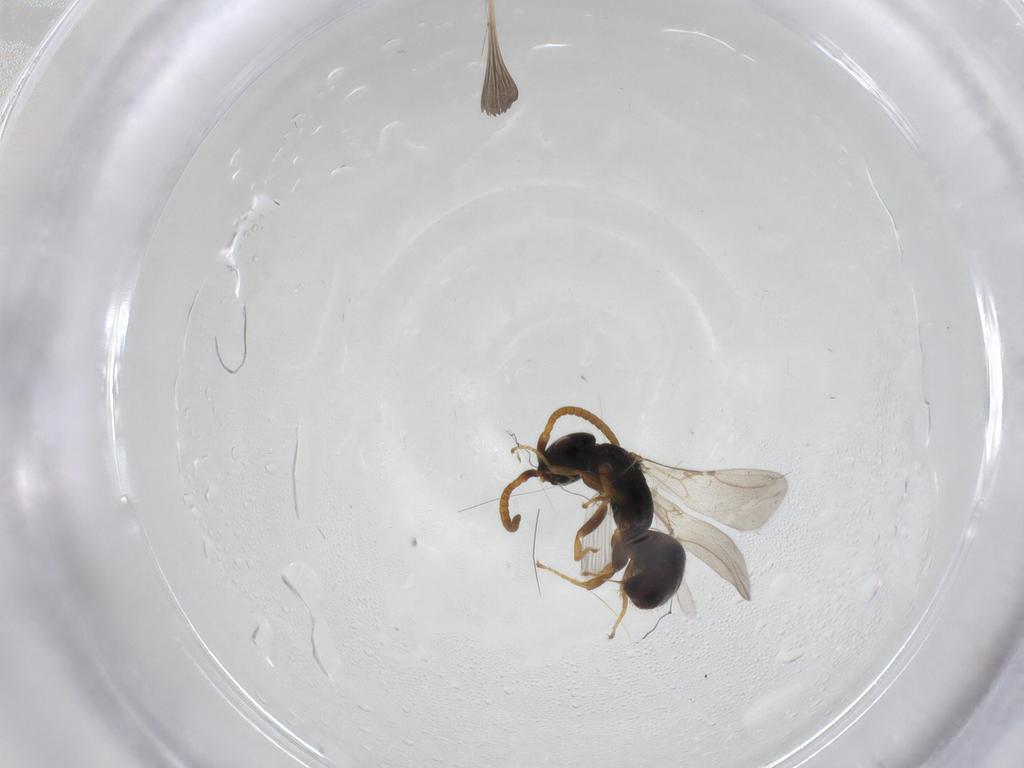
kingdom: Animalia
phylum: Arthropoda
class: Insecta
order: Hymenoptera
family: Bethylidae
